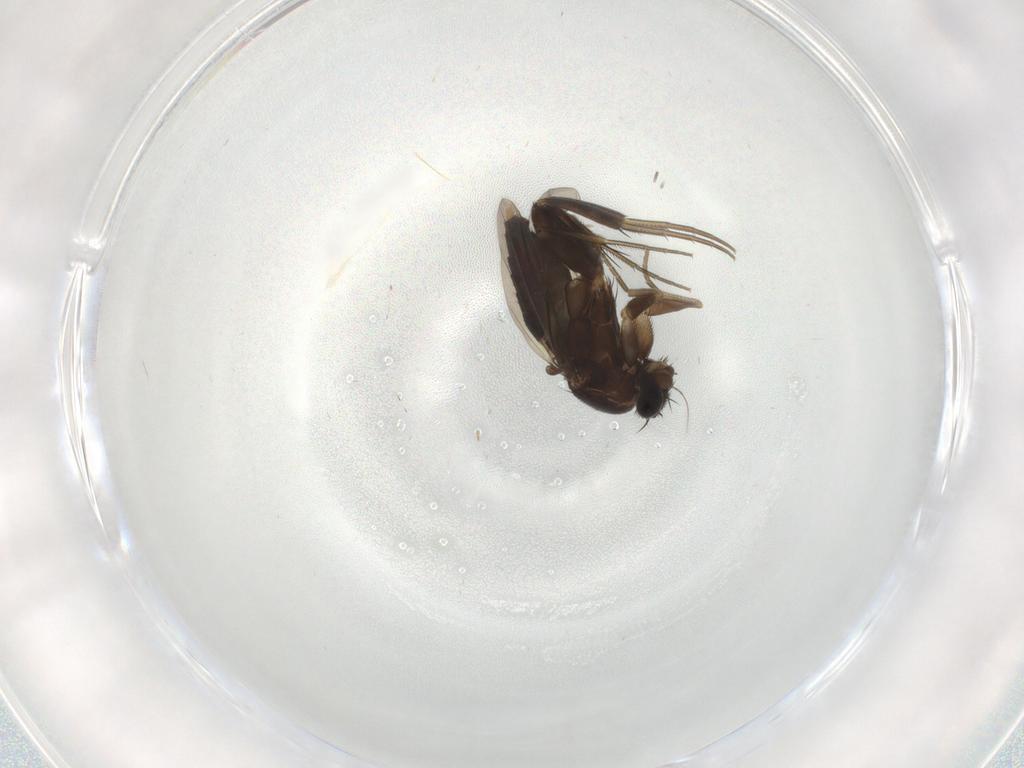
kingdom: Animalia
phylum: Arthropoda
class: Insecta
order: Diptera
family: Phoridae
